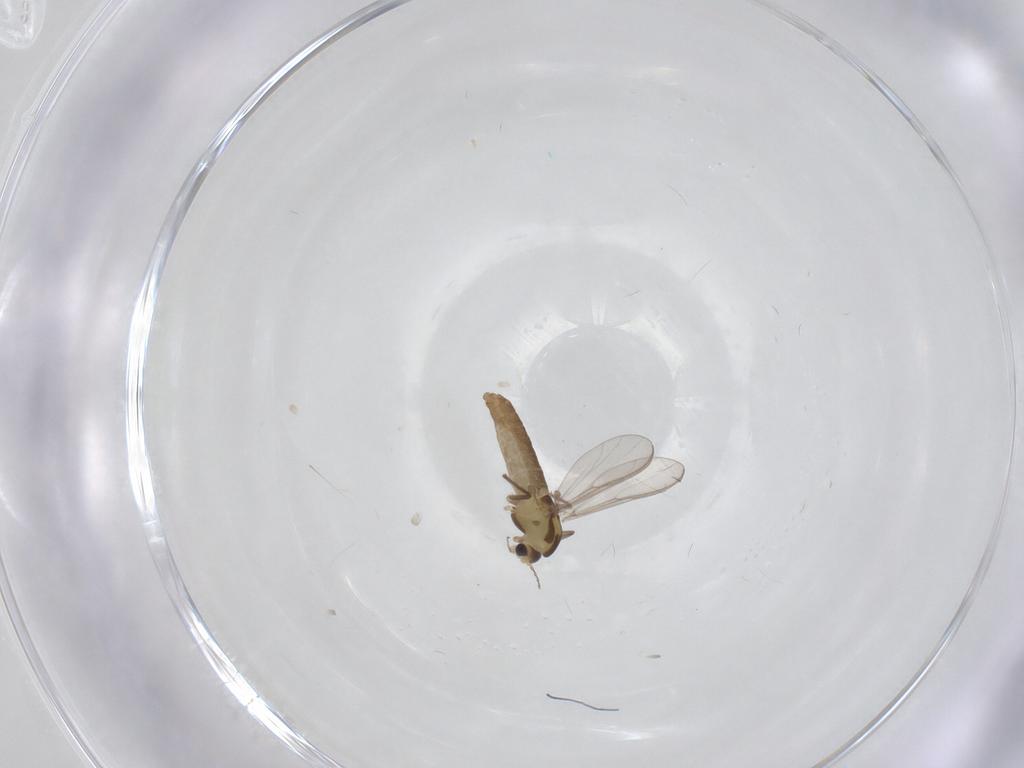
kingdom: Animalia
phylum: Arthropoda
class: Insecta
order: Diptera
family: Chironomidae
